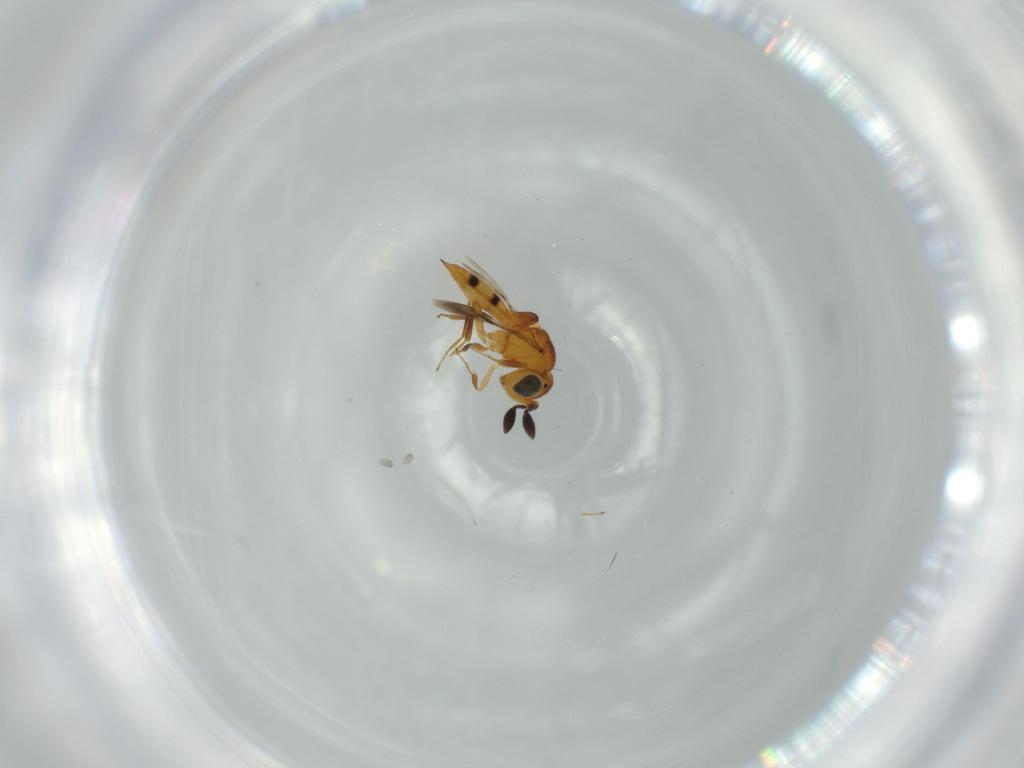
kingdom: Animalia
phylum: Arthropoda
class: Insecta
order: Hymenoptera
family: Scelionidae
